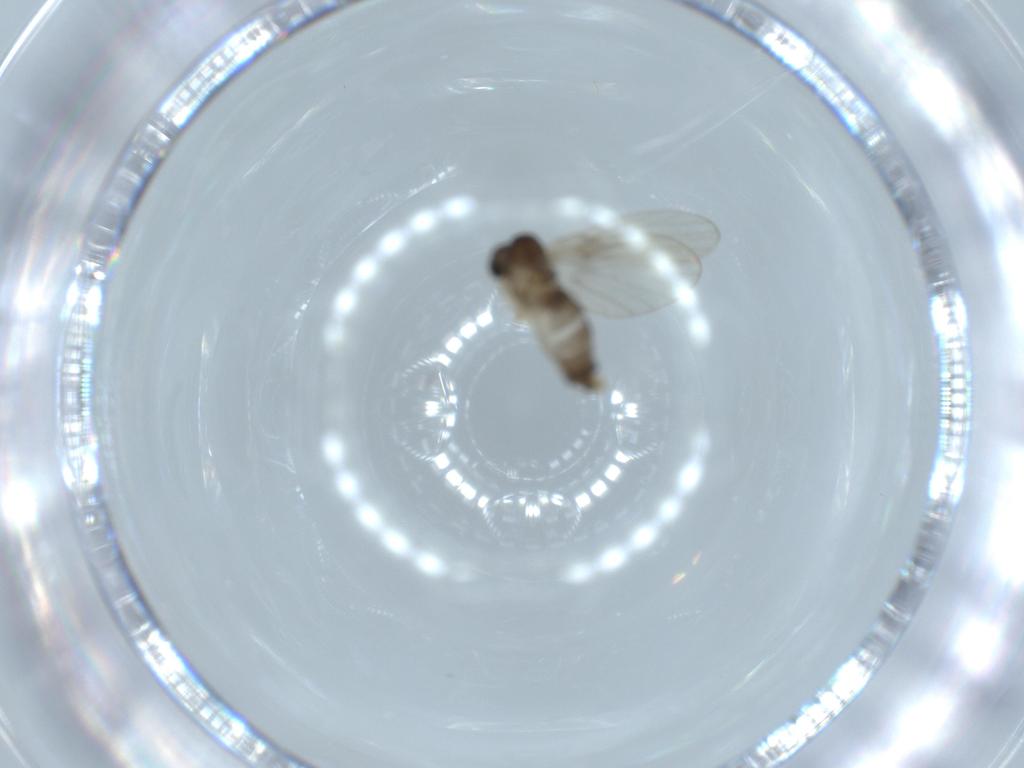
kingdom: Animalia
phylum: Arthropoda
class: Insecta
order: Diptera
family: Psychodidae
